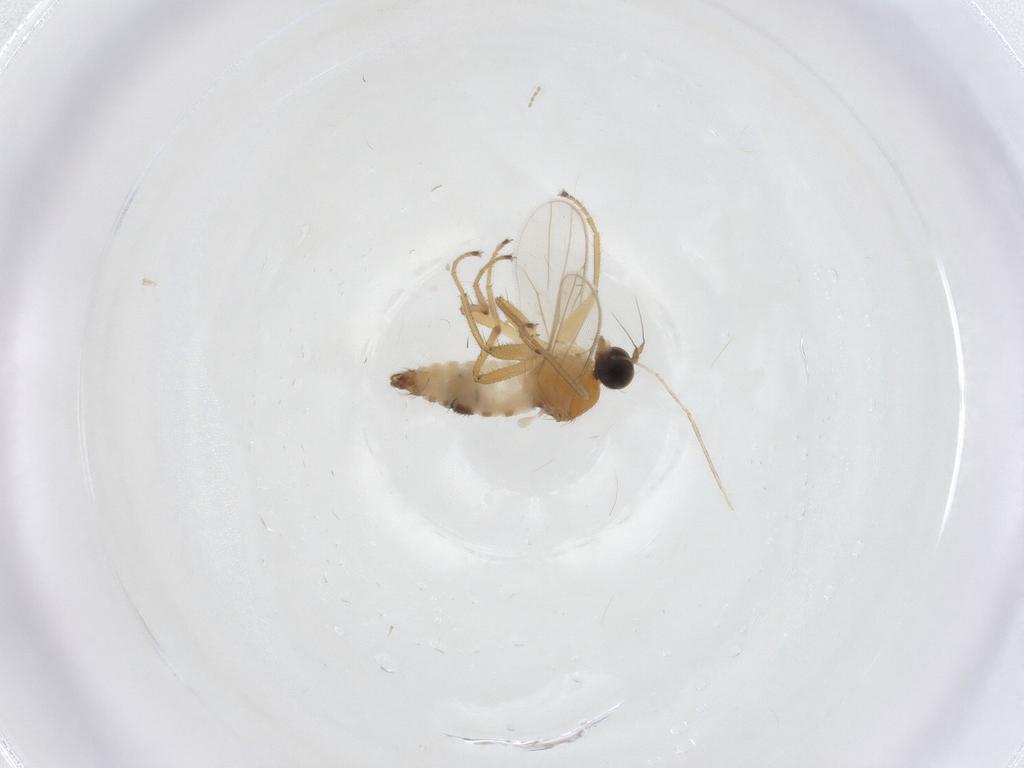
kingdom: Animalia
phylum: Arthropoda
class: Insecta
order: Diptera
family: Hybotidae
